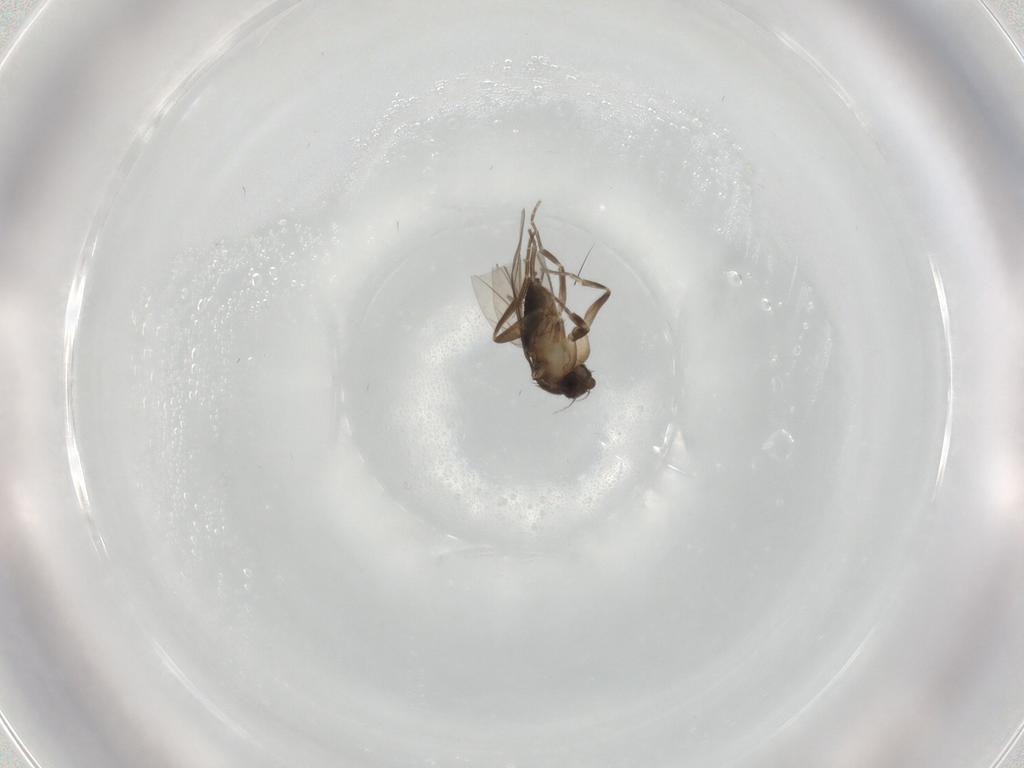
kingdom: Animalia
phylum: Arthropoda
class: Insecta
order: Diptera
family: Phoridae
